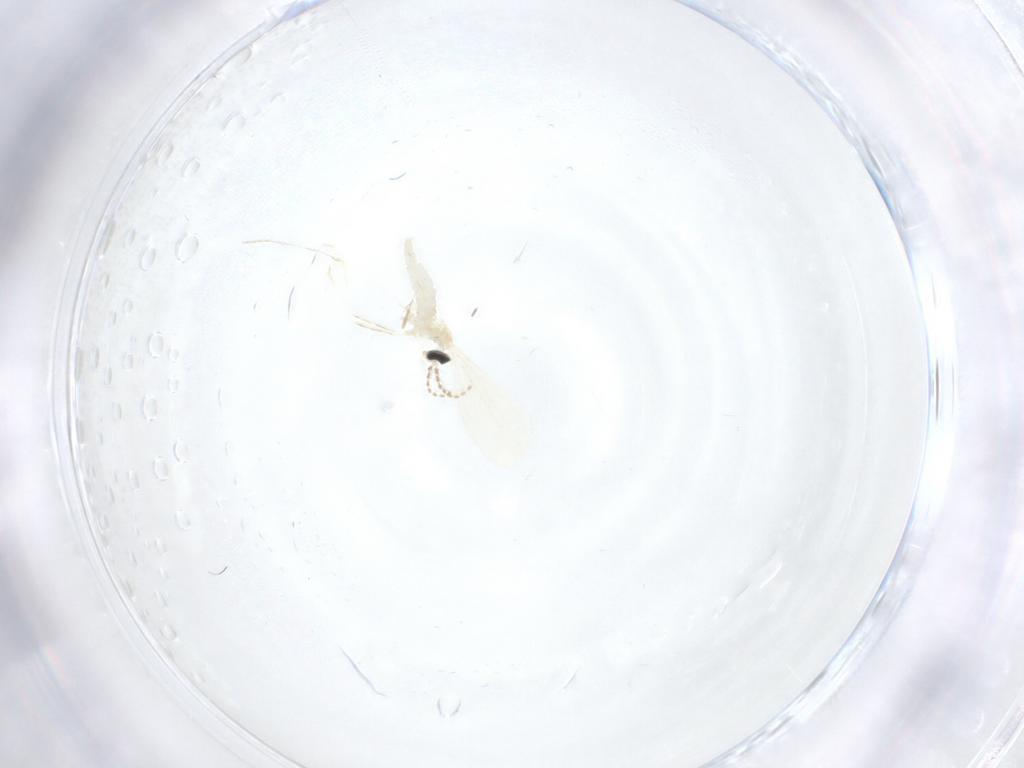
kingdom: Animalia
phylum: Arthropoda
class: Insecta
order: Diptera
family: Cecidomyiidae
